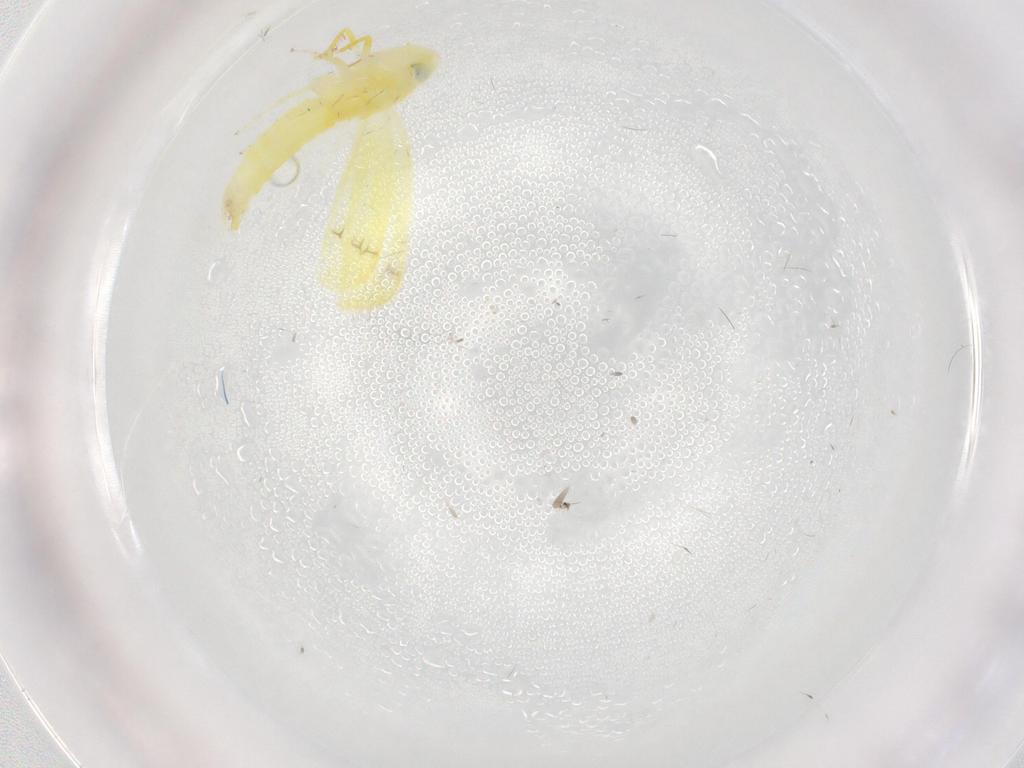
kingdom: Animalia
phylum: Arthropoda
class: Insecta
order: Hemiptera
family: Cicadellidae
